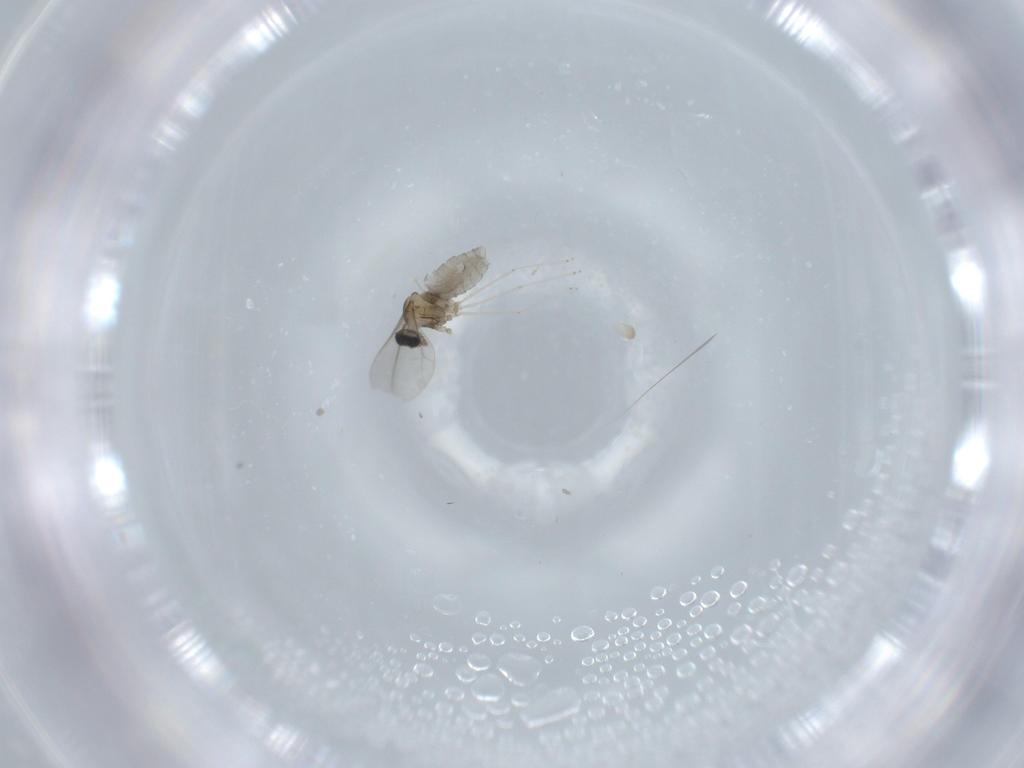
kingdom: Animalia
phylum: Arthropoda
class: Insecta
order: Diptera
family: Cecidomyiidae
